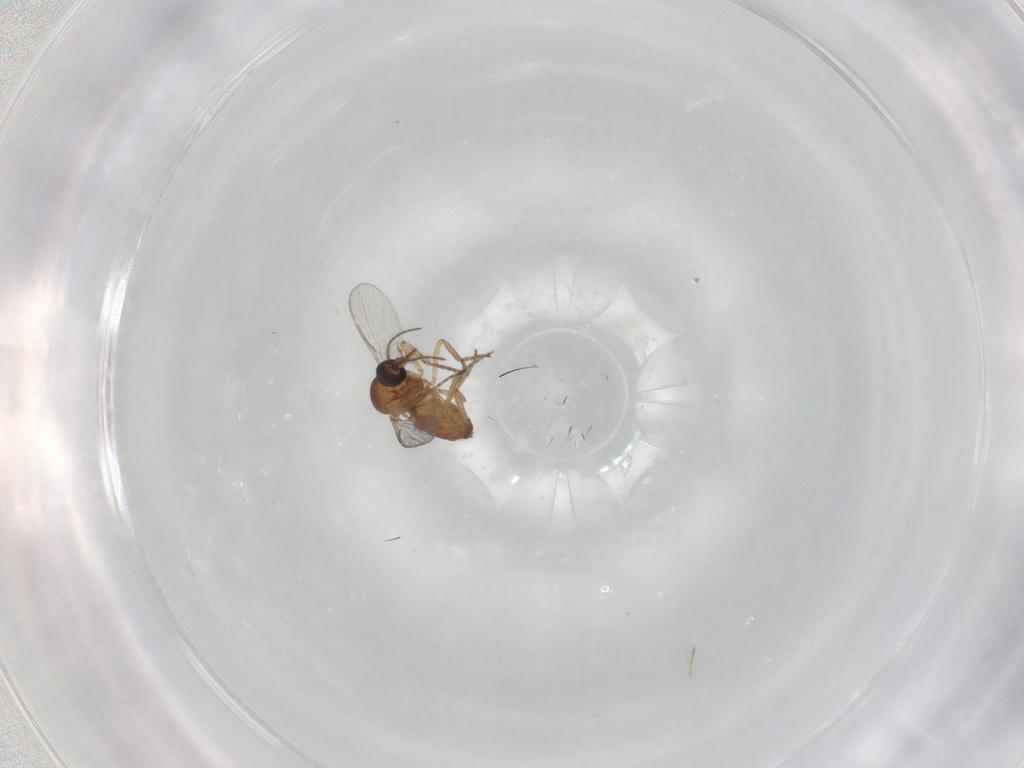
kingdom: Animalia
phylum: Arthropoda
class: Insecta
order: Diptera
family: Ceratopogonidae
